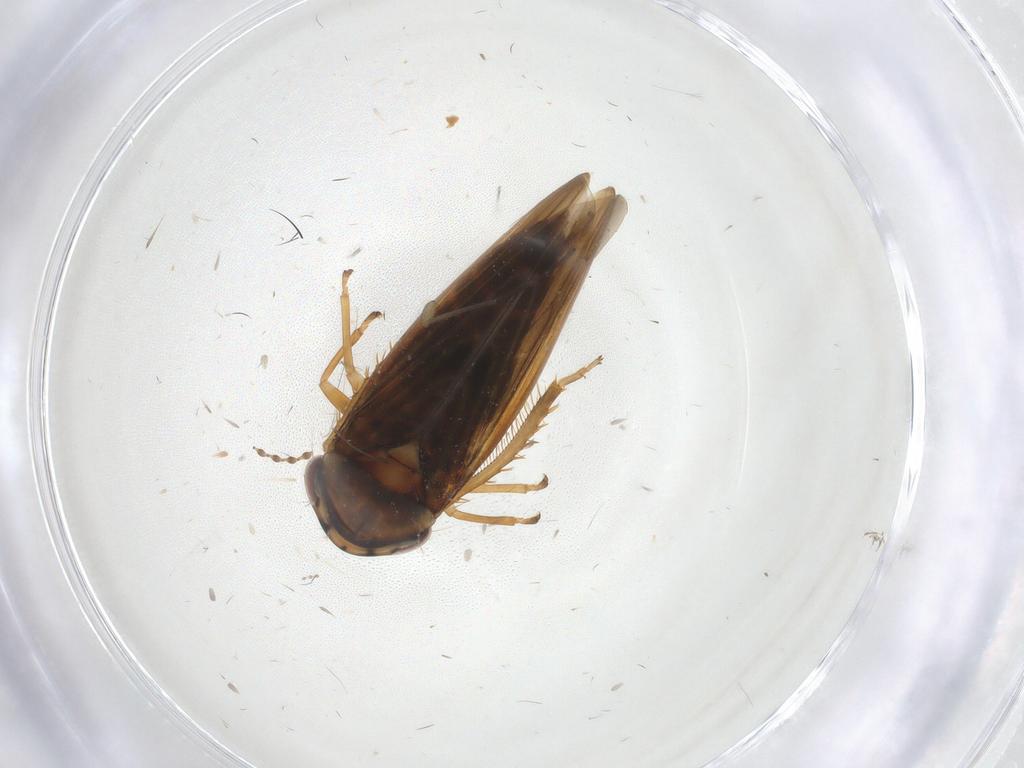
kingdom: Animalia
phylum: Arthropoda
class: Insecta
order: Hemiptera
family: Cicadellidae
